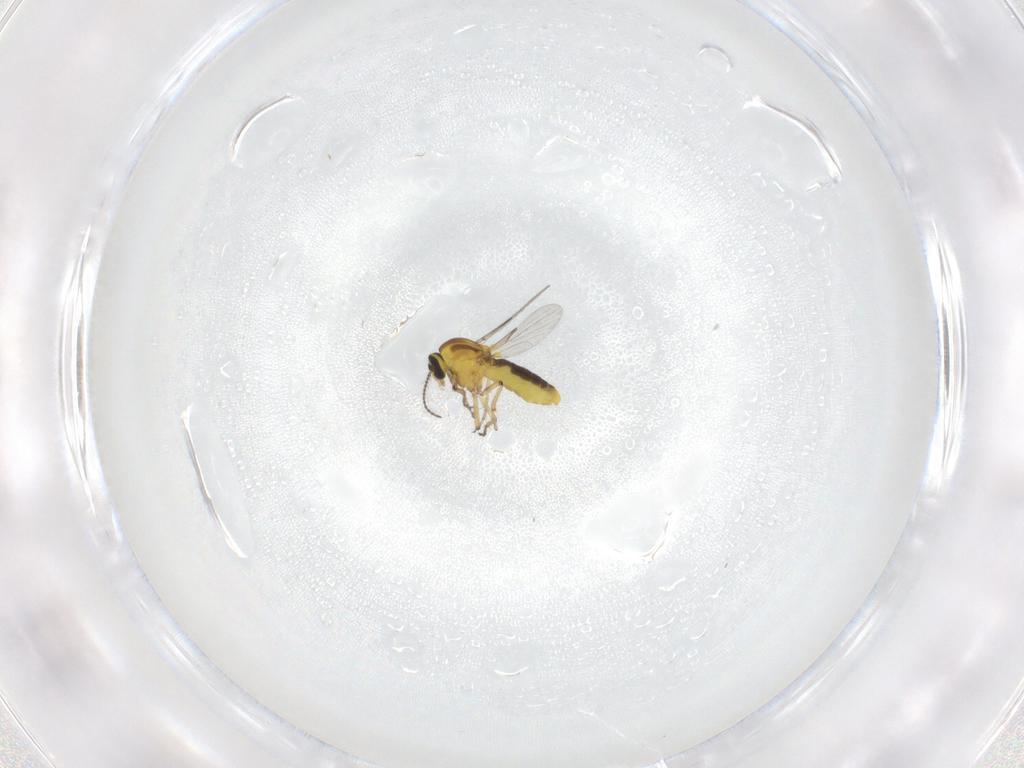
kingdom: Animalia
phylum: Arthropoda
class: Insecta
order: Diptera
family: Ceratopogonidae
